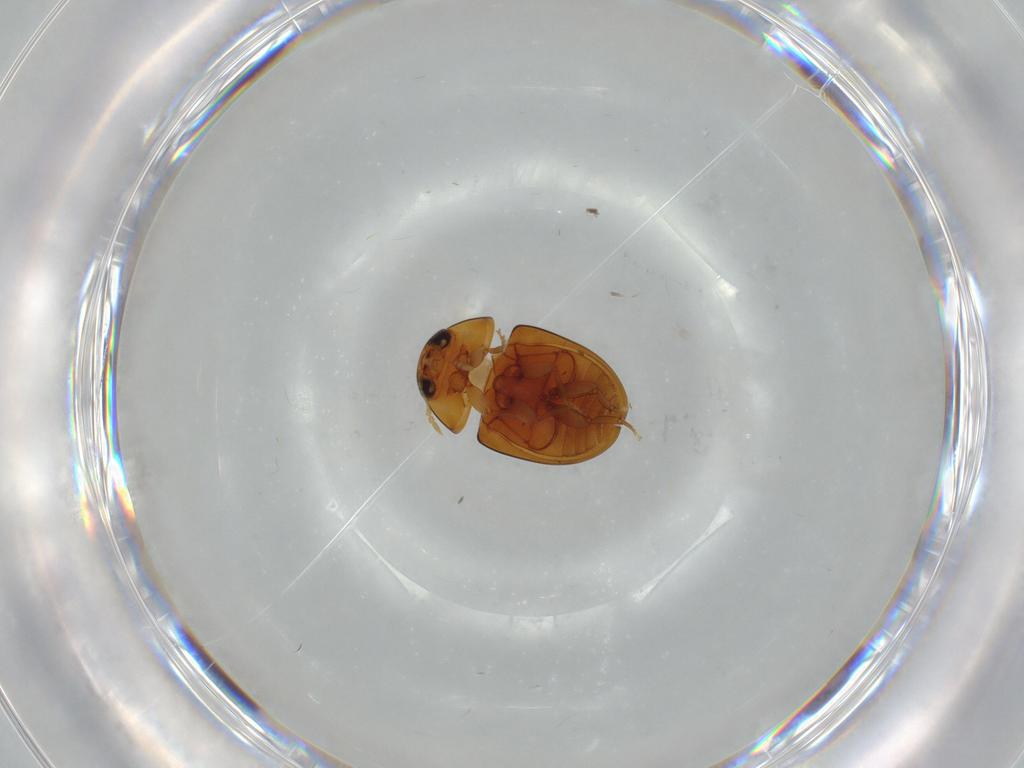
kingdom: Animalia
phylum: Arthropoda
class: Insecta
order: Coleoptera
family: Chrysomelidae
